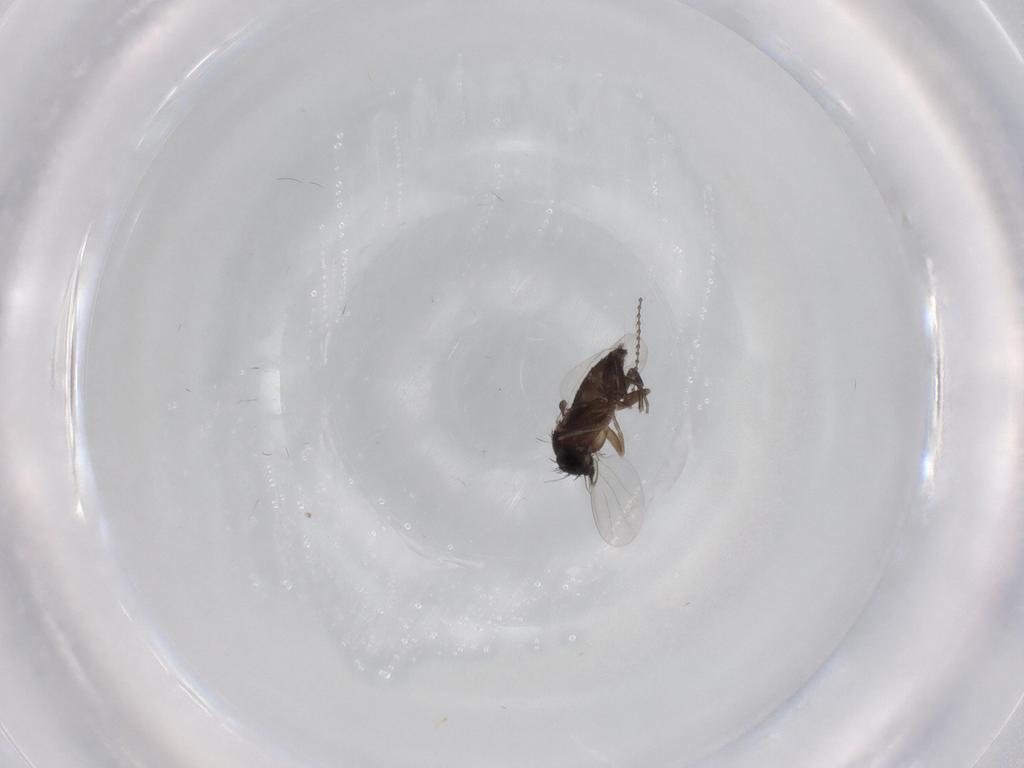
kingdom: Animalia
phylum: Arthropoda
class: Insecta
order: Diptera
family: Phoridae
